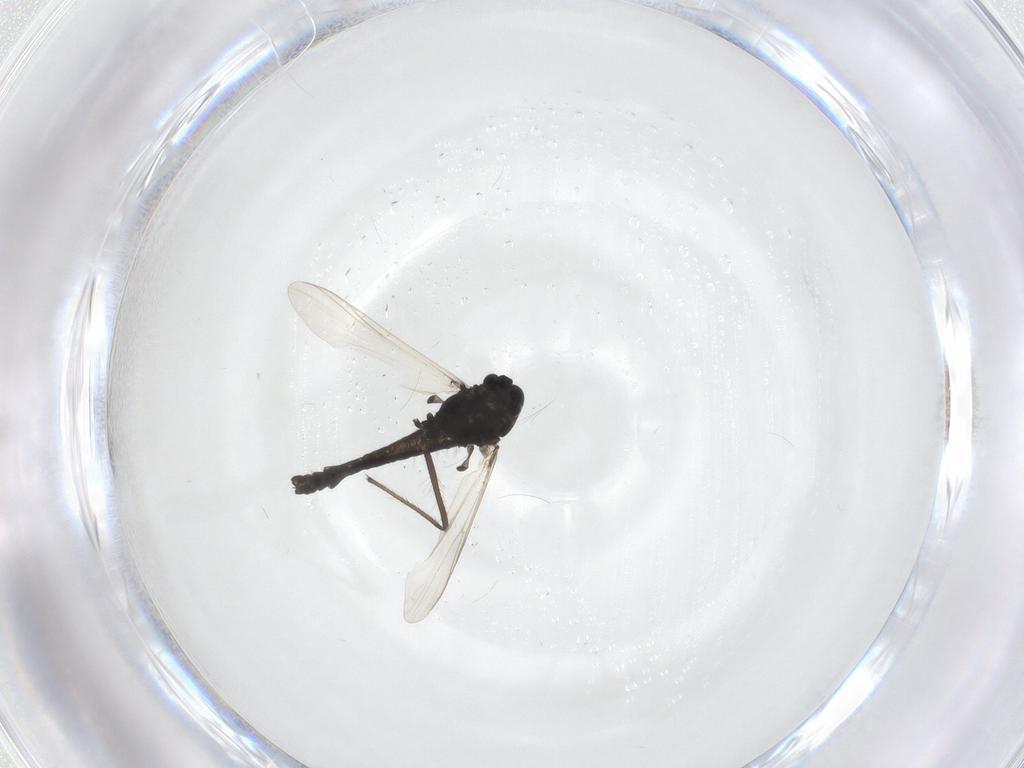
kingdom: Animalia
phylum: Arthropoda
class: Insecta
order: Diptera
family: Chironomidae
